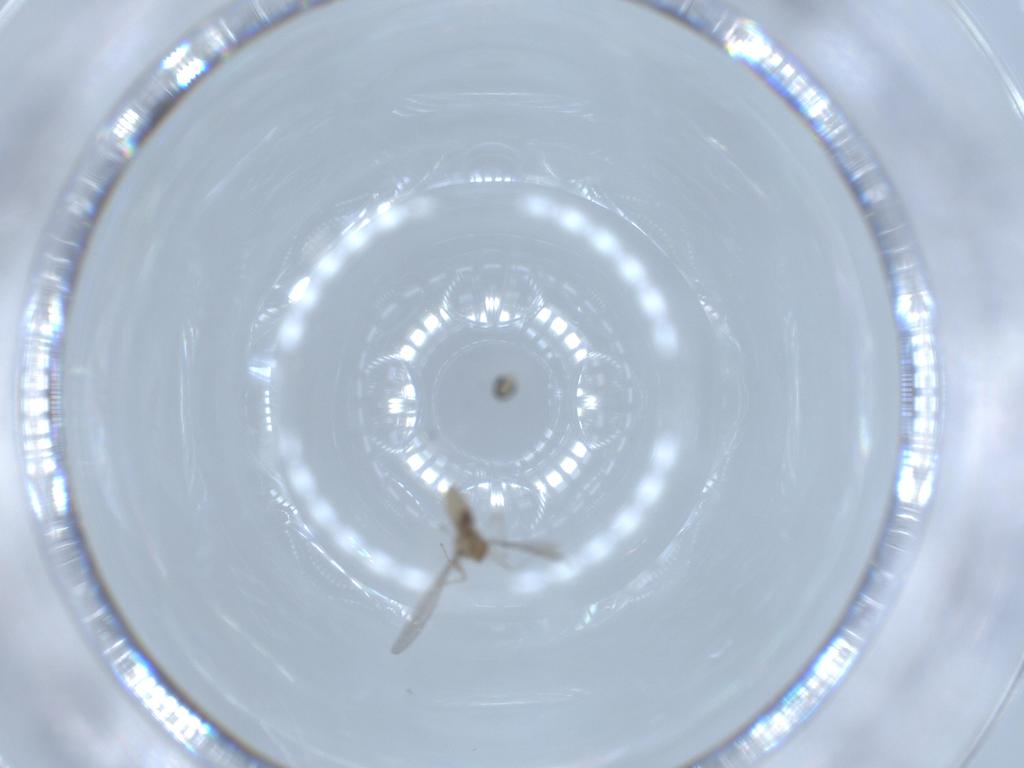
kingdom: Animalia
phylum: Arthropoda
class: Insecta
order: Diptera
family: Cecidomyiidae
